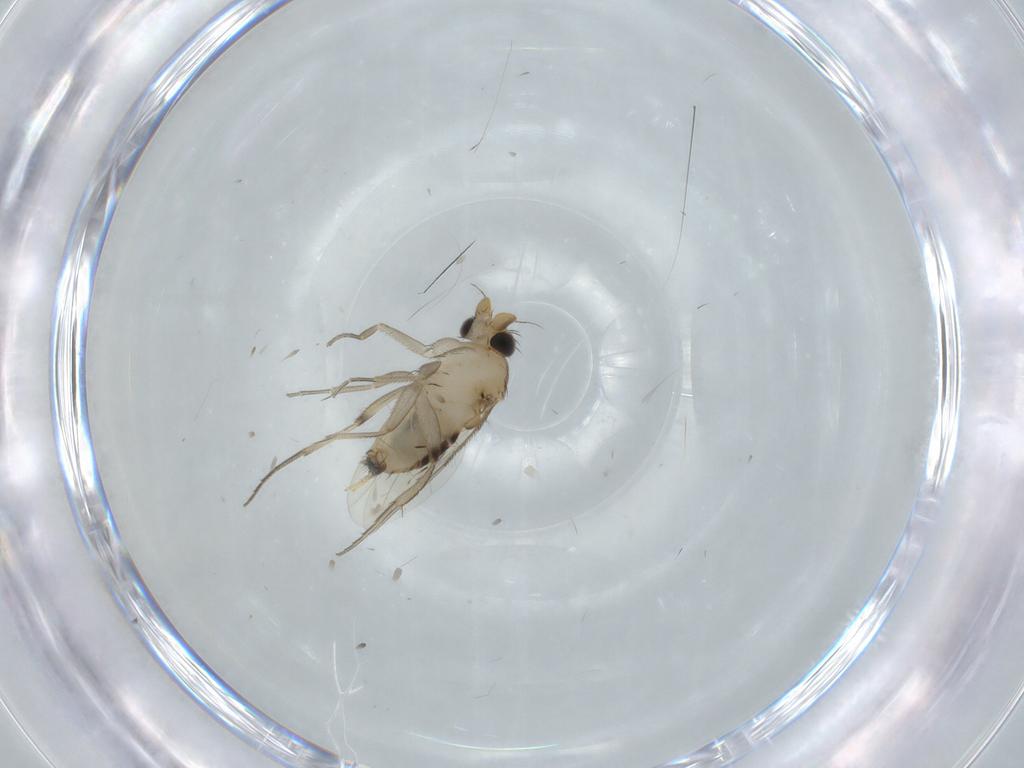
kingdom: Animalia
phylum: Arthropoda
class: Insecta
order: Diptera
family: Phoridae
